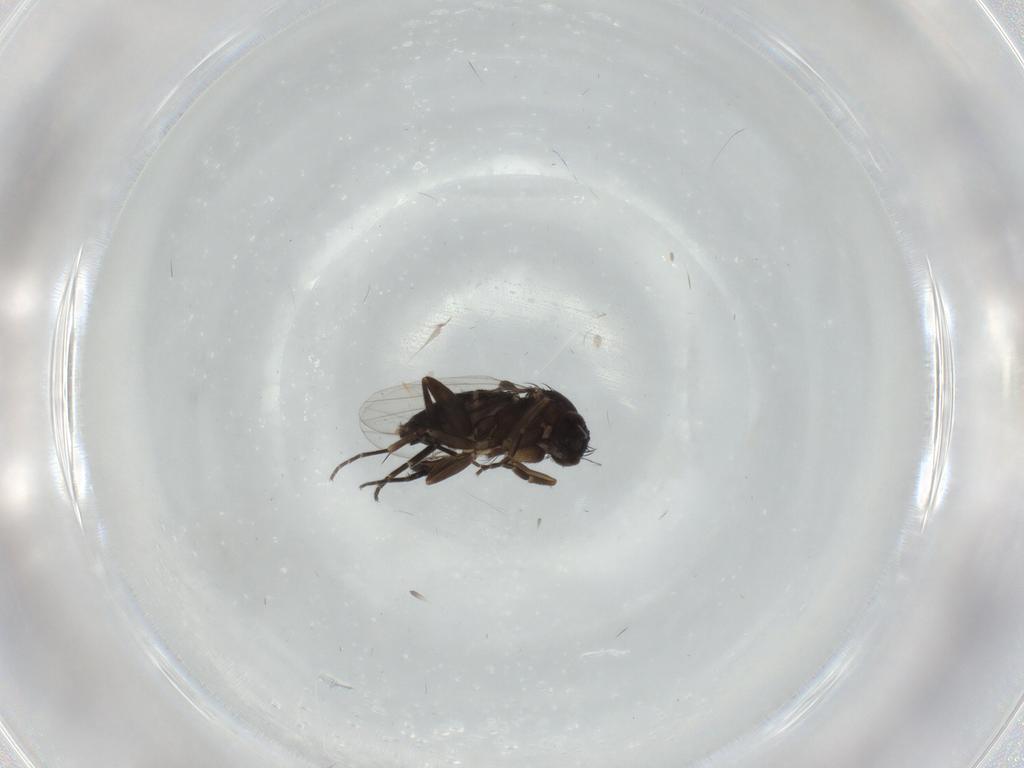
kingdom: Animalia
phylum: Arthropoda
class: Insecta
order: Diptera
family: Phoridae
